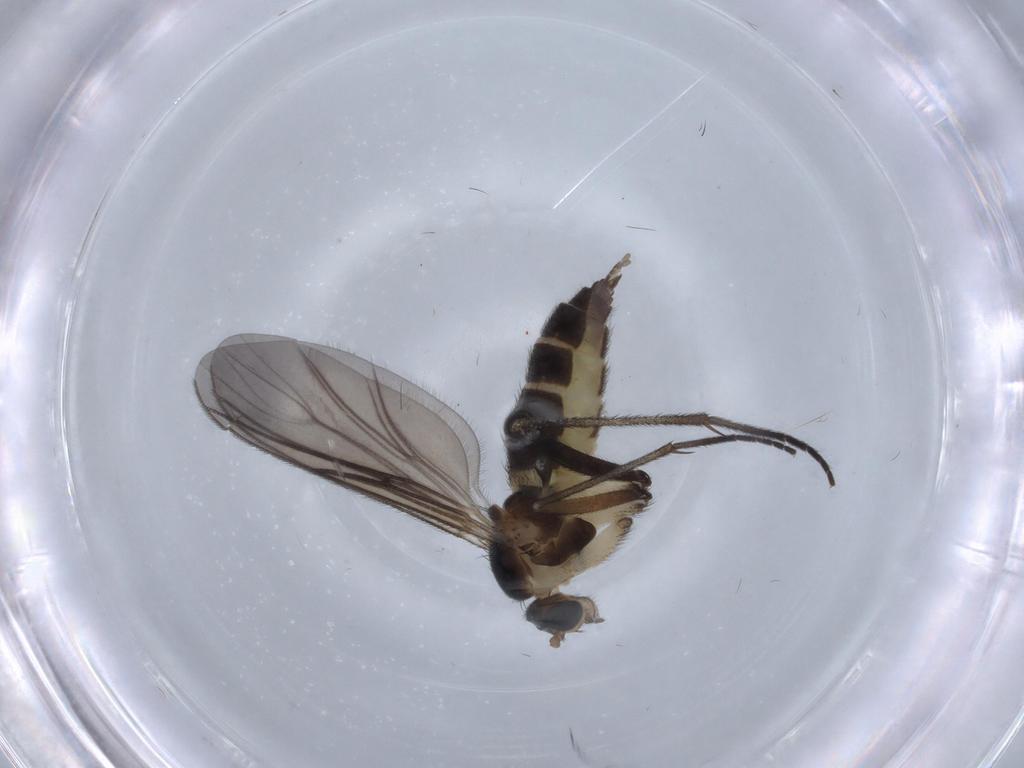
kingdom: Animalia
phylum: Arthropoda
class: Insecta
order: Diptera
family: Sciaridae
